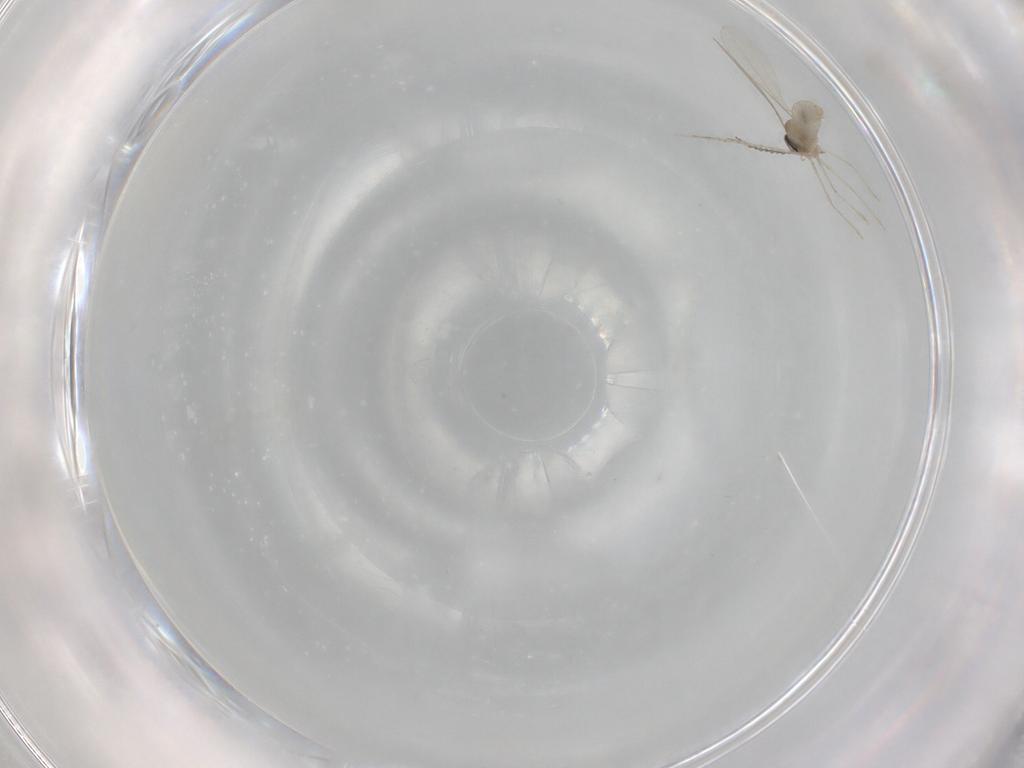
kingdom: Animalia
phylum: Arthropoda
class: Insecta
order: Diptera
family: Cecidomyiidae
